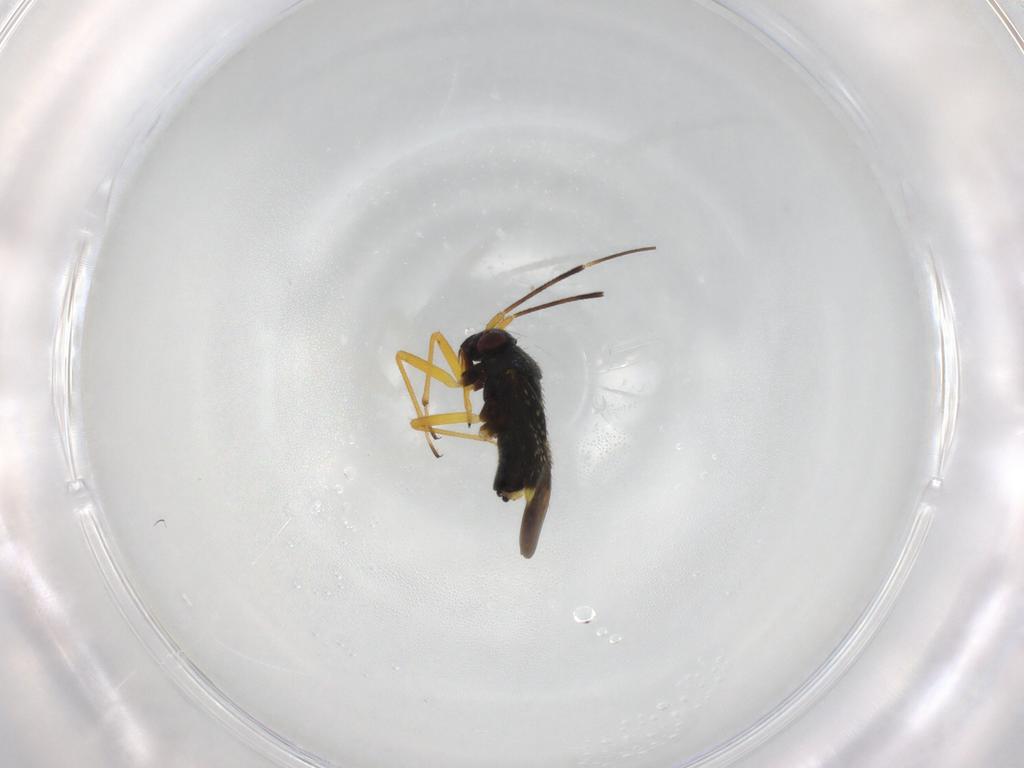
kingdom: Animalia
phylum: Arthropoda
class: Insecta
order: Hemiptera
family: Miridae
